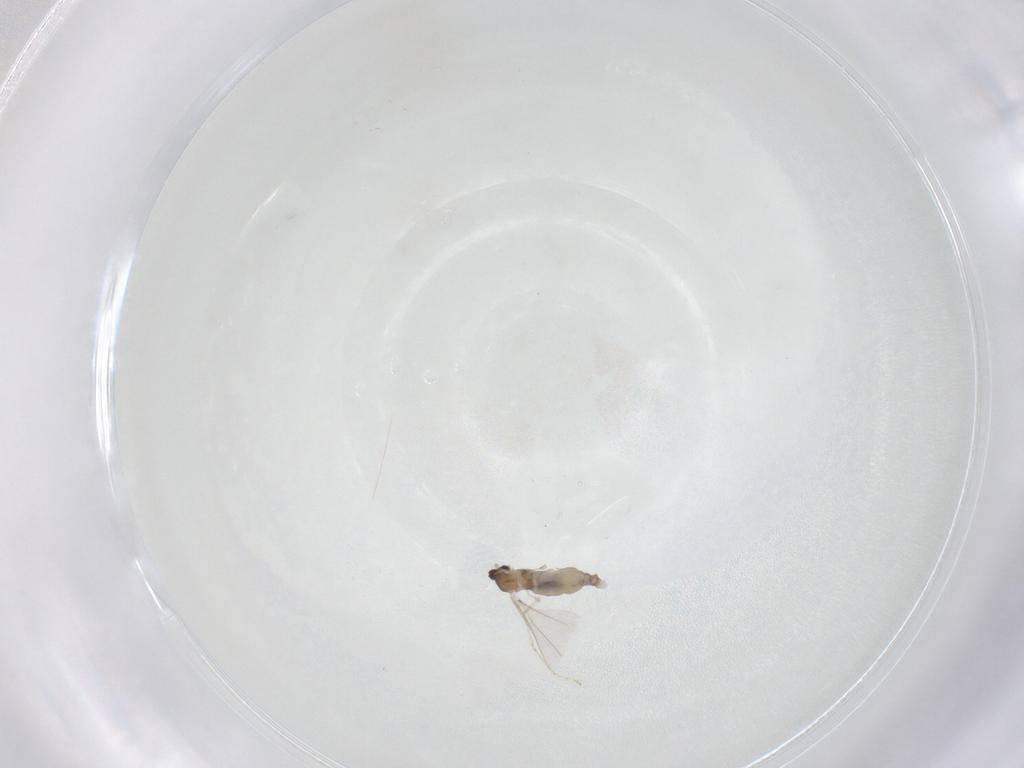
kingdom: Animalia
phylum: Arthropoda
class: Insecta
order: Diptera
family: Cecidomyiidae
